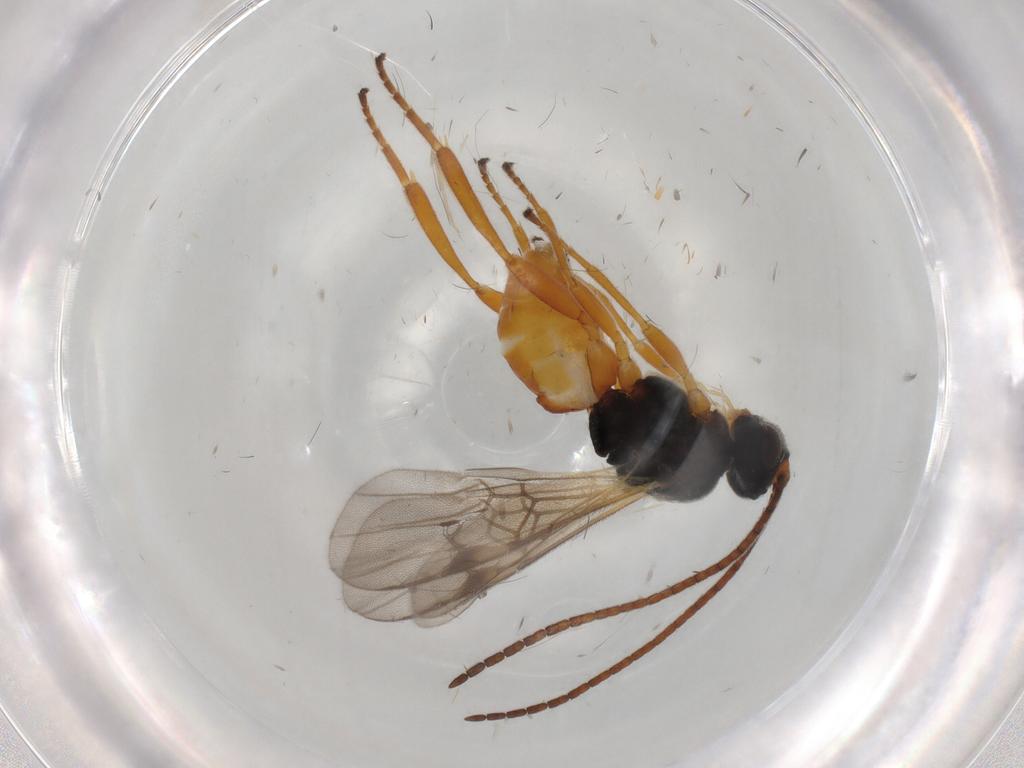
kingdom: Animalia
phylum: Arthropoda
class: Insecta
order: Hymenoptera
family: Braconidae
